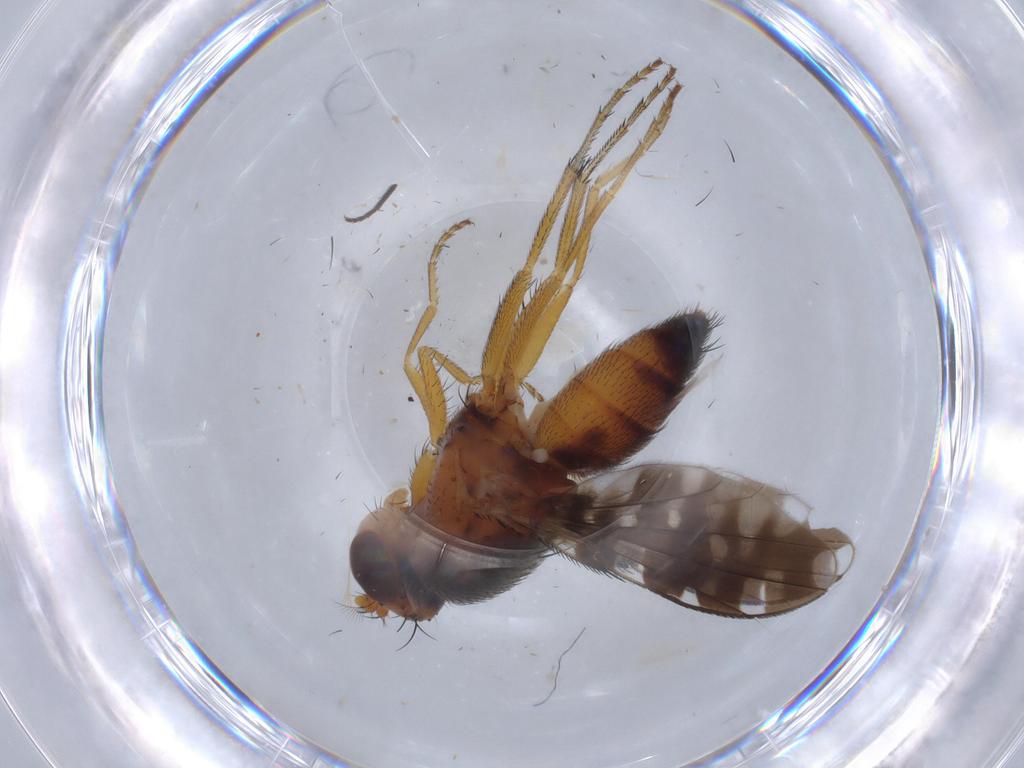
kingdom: Animalia
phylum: Arthropoda
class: Insecta
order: Diptera
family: Ephydridae
